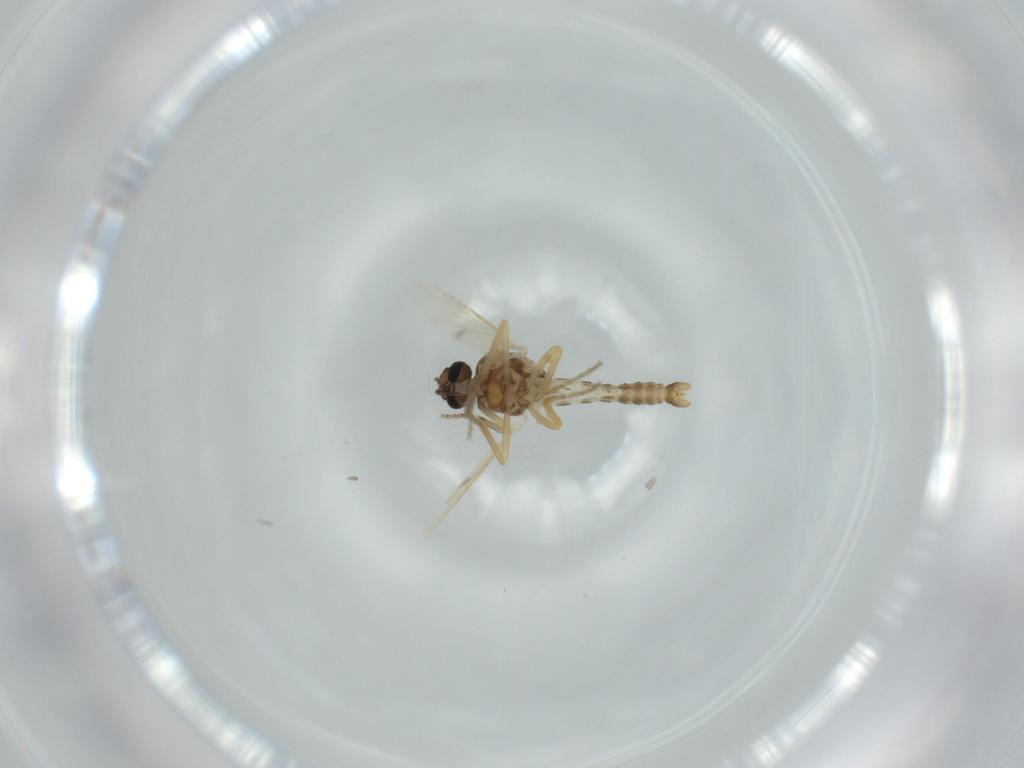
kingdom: Animalia
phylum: Arthropoda
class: Insecta
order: Diptera
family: Ceratopogonidae
